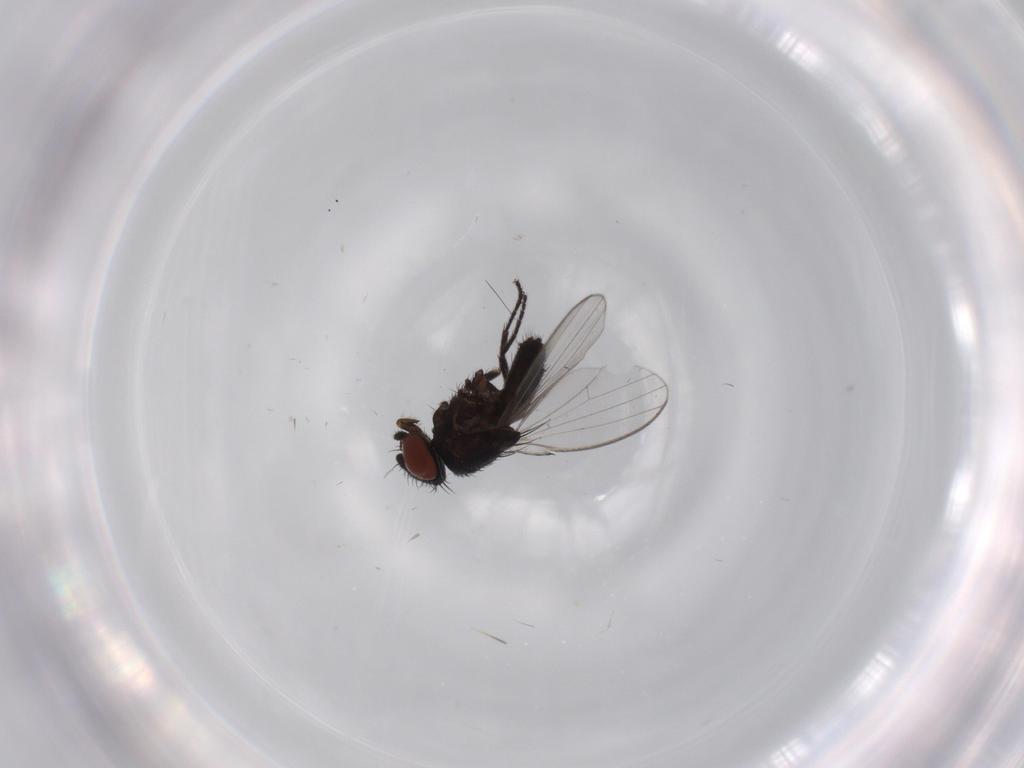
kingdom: Animalia
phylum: Arthropoda
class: Insecta
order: Diptera
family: Milichiidae
